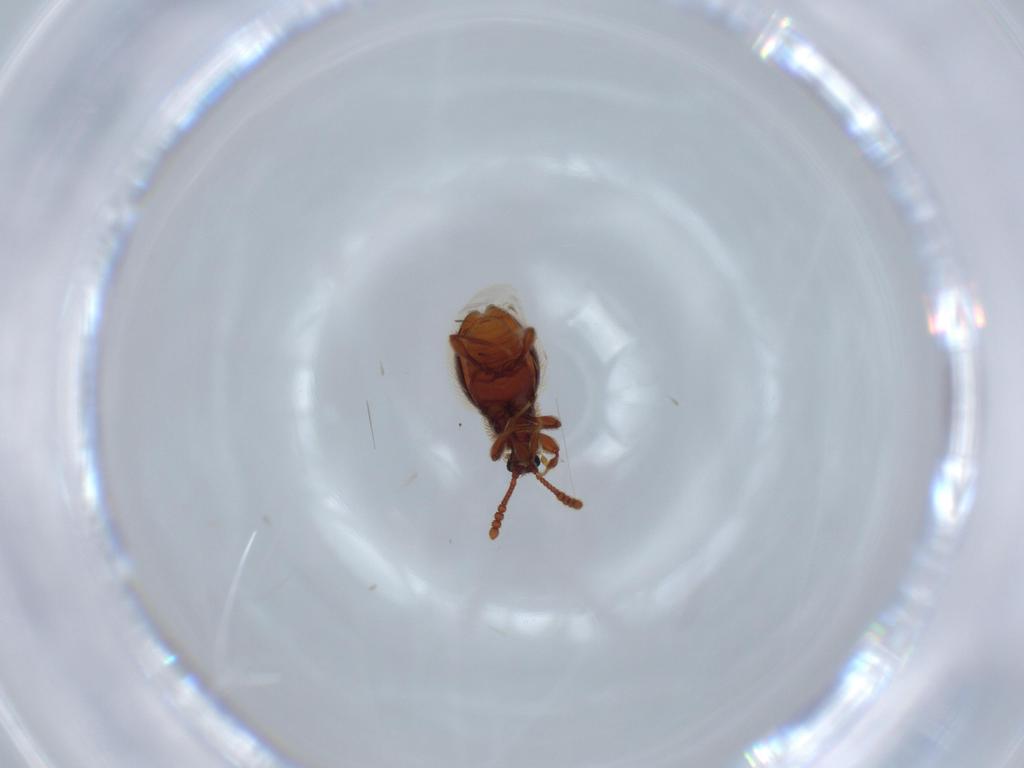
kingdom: Animalia
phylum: Arthropoda
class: Insecta
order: Coleoptera
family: Staphylinidae
